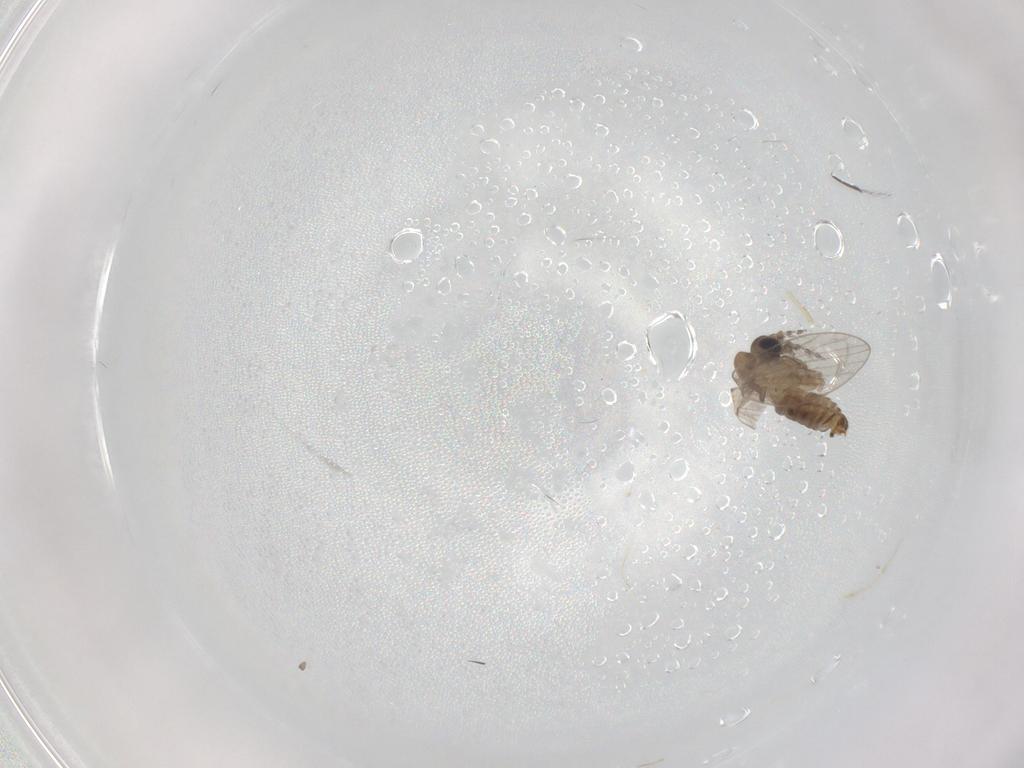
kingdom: Animalia
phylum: Arthropoda
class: Insecta
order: Diptera
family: Psychodidae
